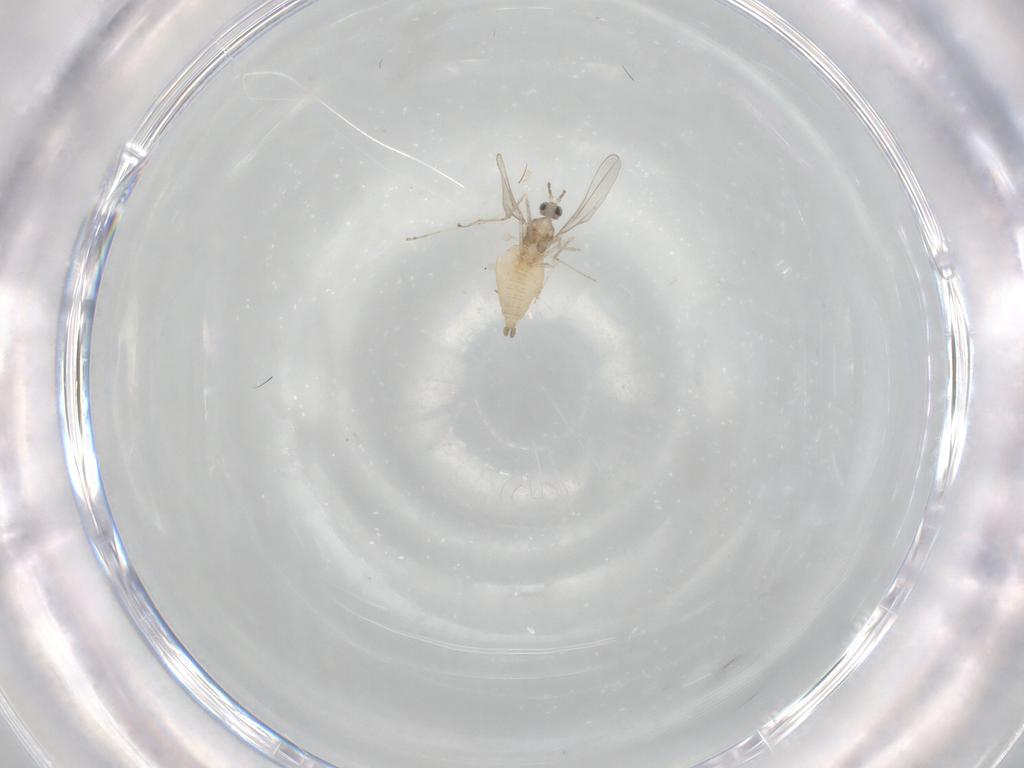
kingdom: Animalia
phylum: Arthropoda
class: Insecta
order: Diptera
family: Cecidomyiidae
